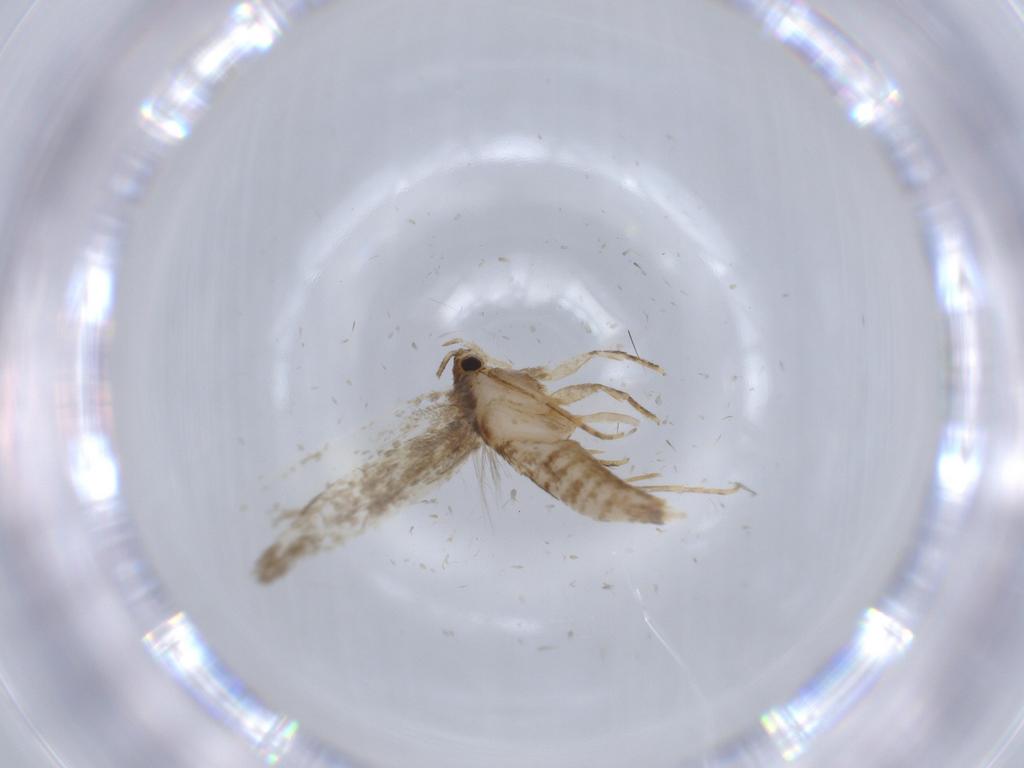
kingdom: Animalia
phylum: Arthropoda
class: Insecta
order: Lepidoptera
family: Tineidae
